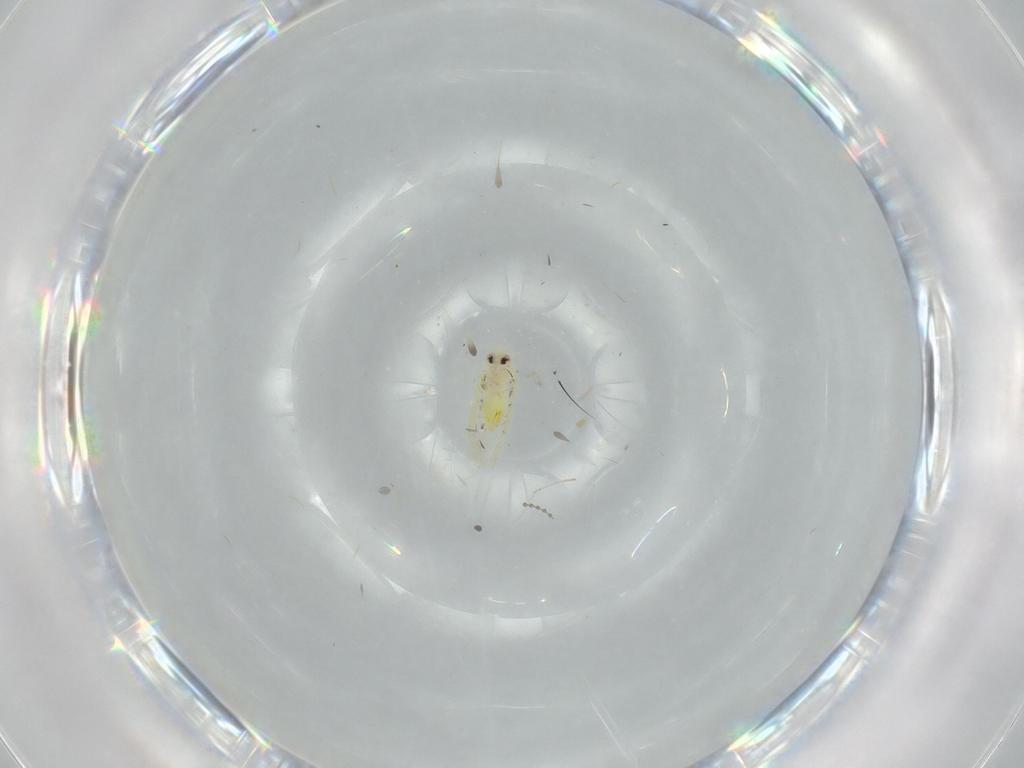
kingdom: Animalia
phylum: Arthropoda
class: Insecta
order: Hemiptera
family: Aleyrodidae
